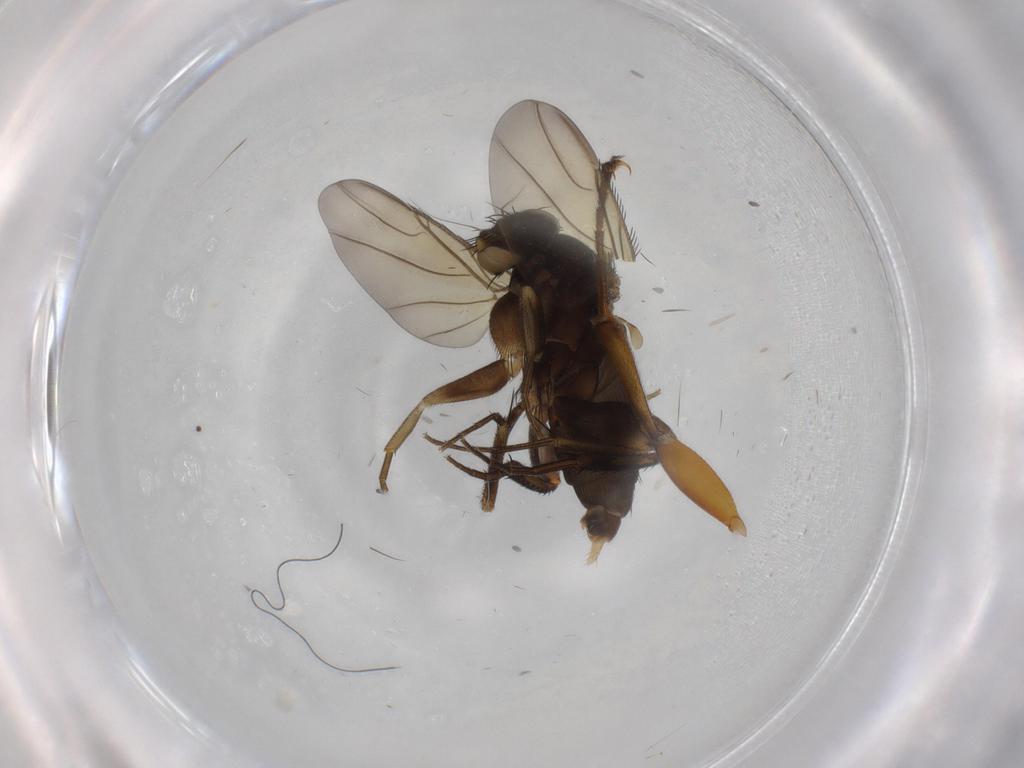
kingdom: Animalia
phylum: Arthropoda
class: Insecta
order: Diptera
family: Phoridae
